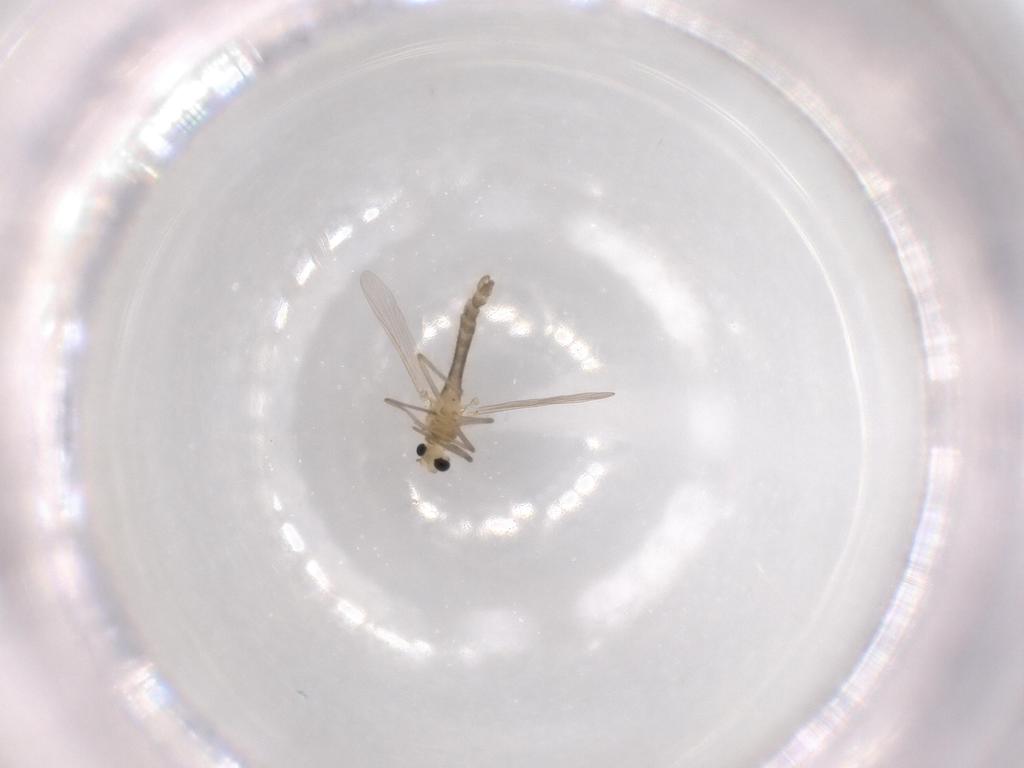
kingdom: Animalia
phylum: Arthropoda
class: Insecta
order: Diptera
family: Chironomidae
